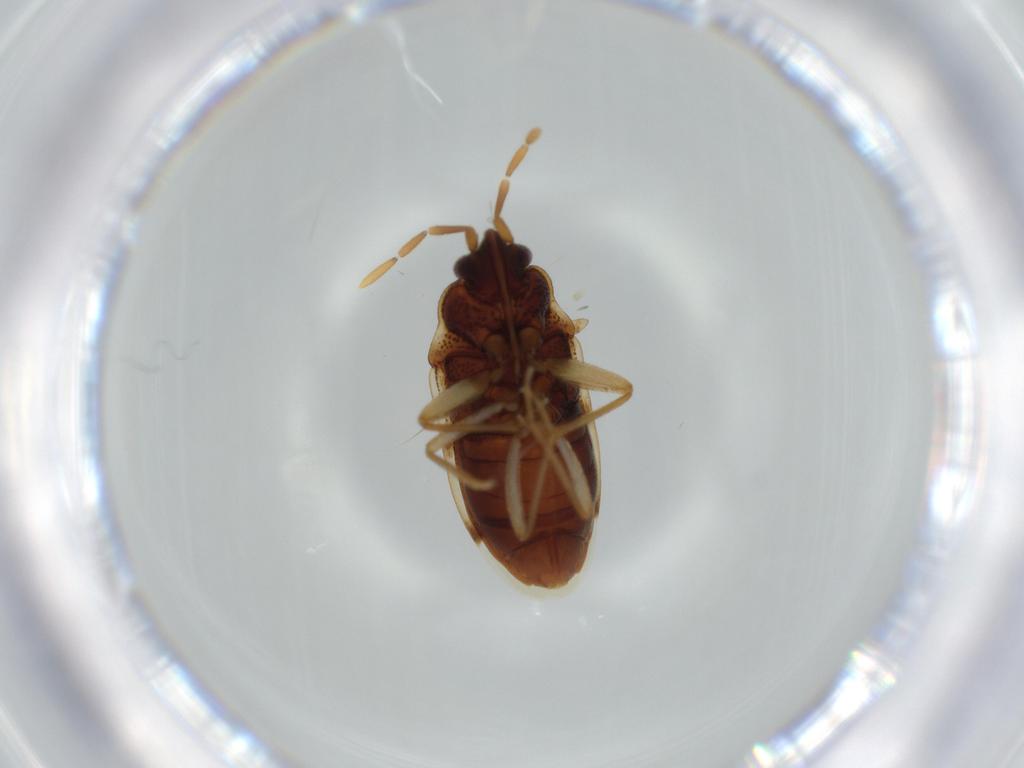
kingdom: Animalia
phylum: Arthropoda
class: Insecta
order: Hemiptera
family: Rhyparochromidae
